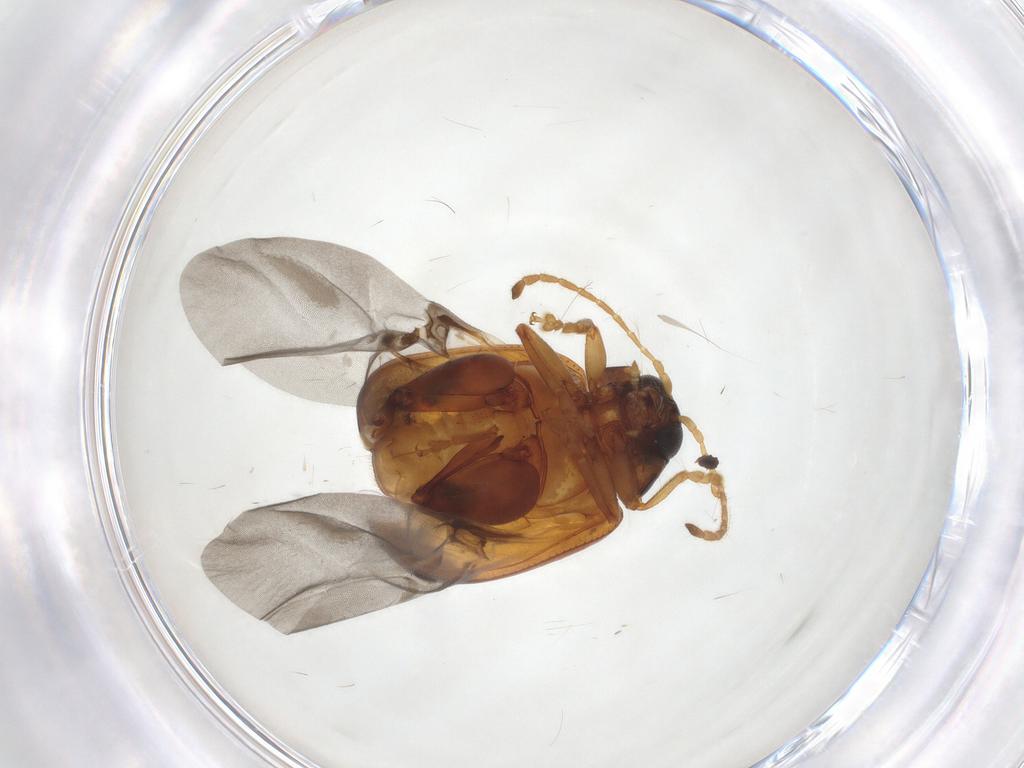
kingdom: Animalia
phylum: Arthropoda
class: Insecta
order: Coleoptera
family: Chrysomelidae
